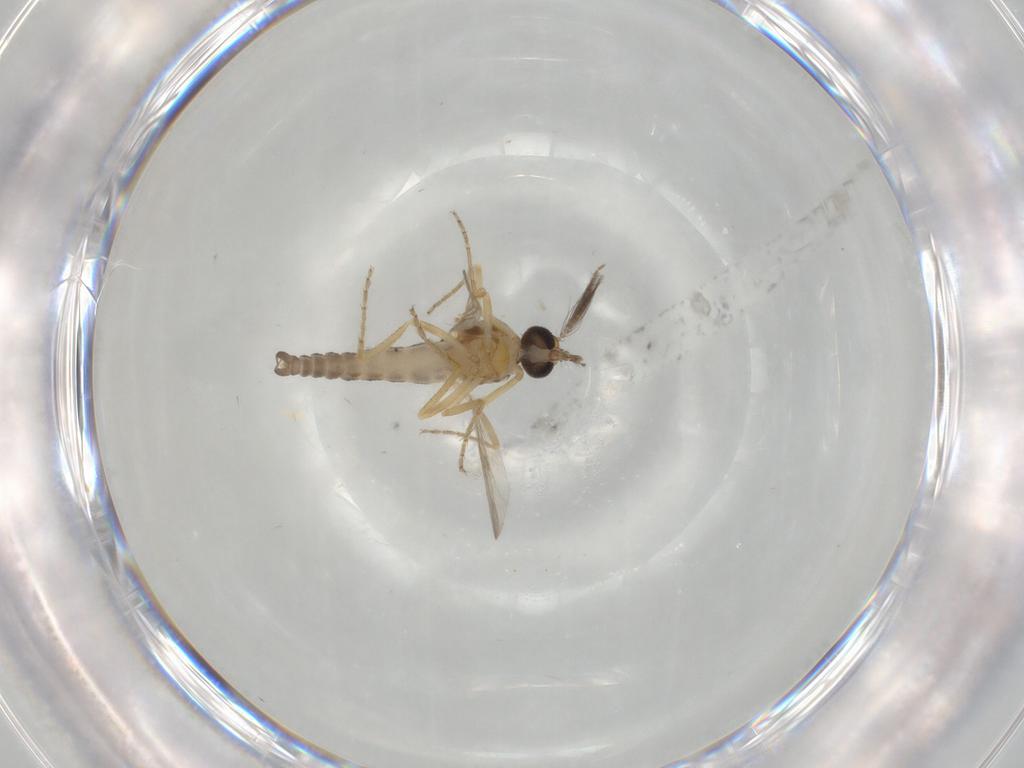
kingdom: Animalia
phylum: Arthropoda
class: Insecta
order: Diptera
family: Ceratopogonidae
